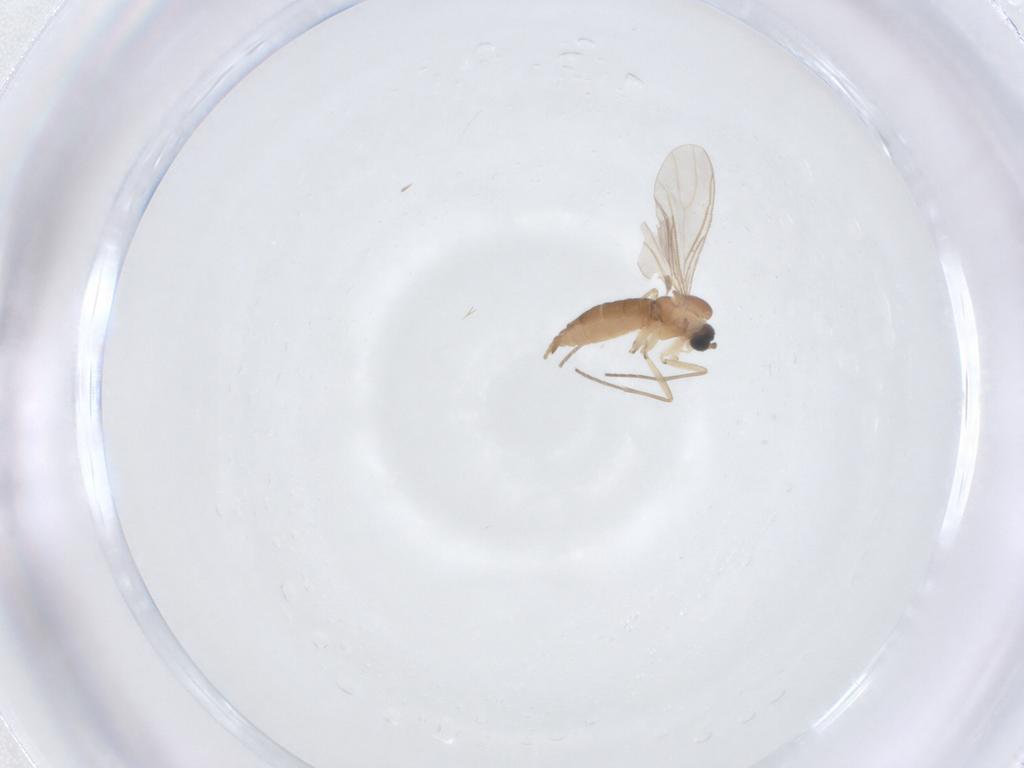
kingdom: Animalia
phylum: Arthropoda
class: Insecta
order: Diptera
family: Sciaridae
